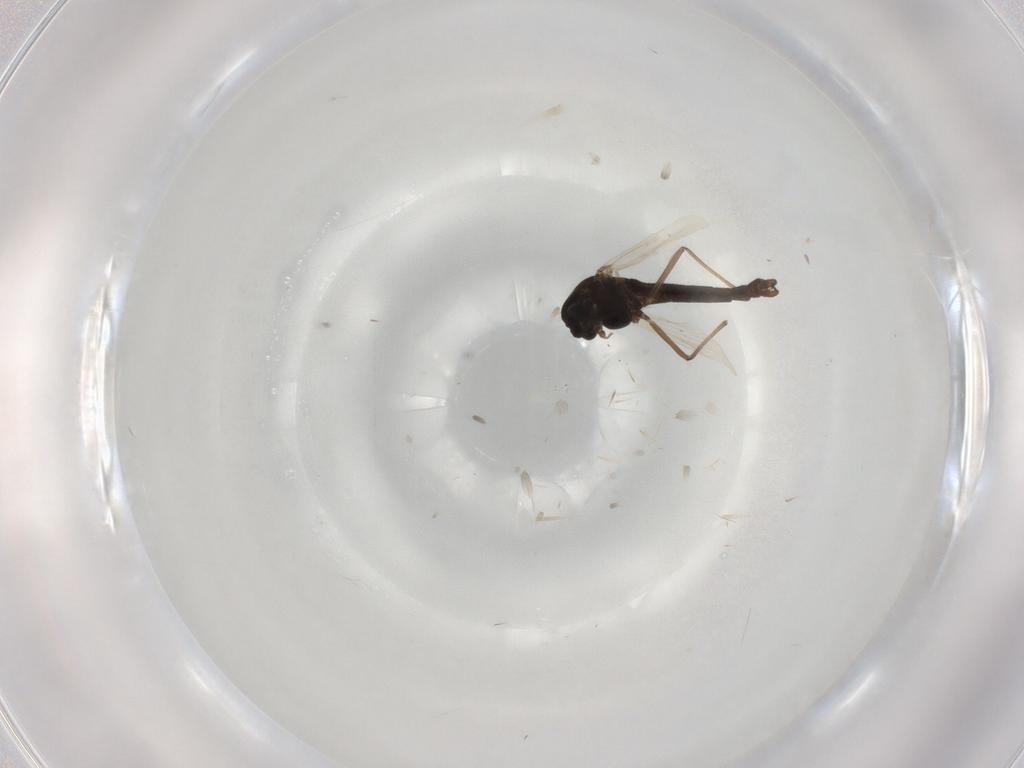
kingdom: Animalia
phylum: Arthropoda
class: Insecta
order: Diptera
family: Chironomidae
